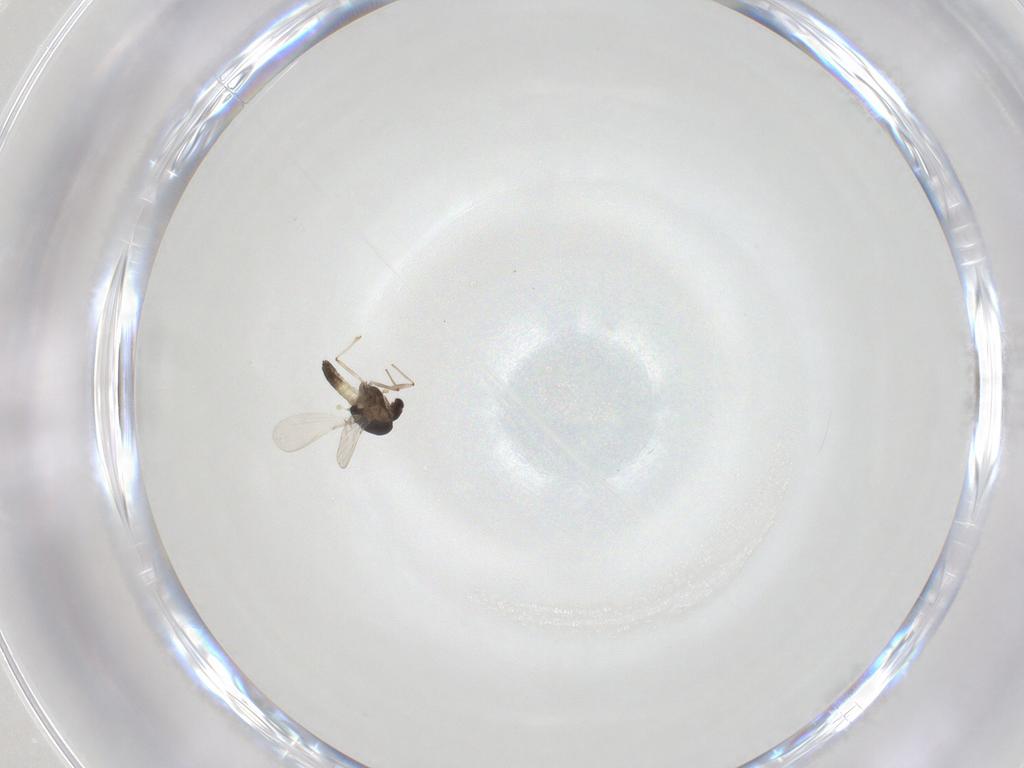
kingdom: Animalia
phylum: Arthropoda
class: Insecta
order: Diptera
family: Chironomidae
